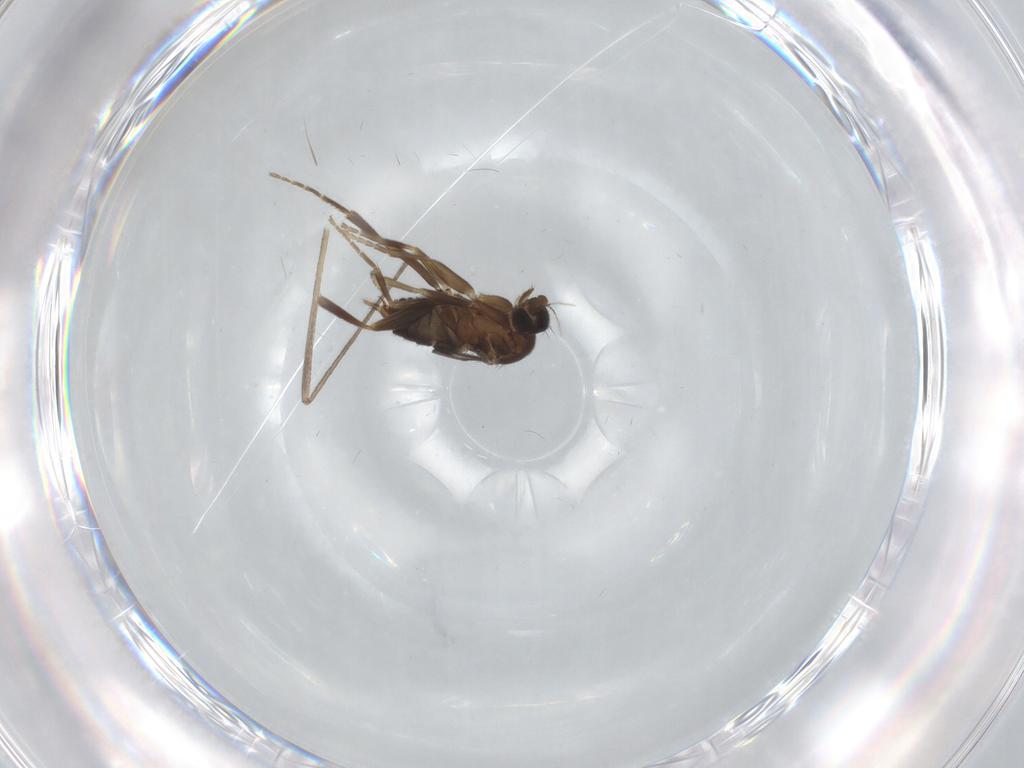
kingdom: Animalia
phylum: Arthropoda
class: Insecta
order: Diptera
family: Phoridae
